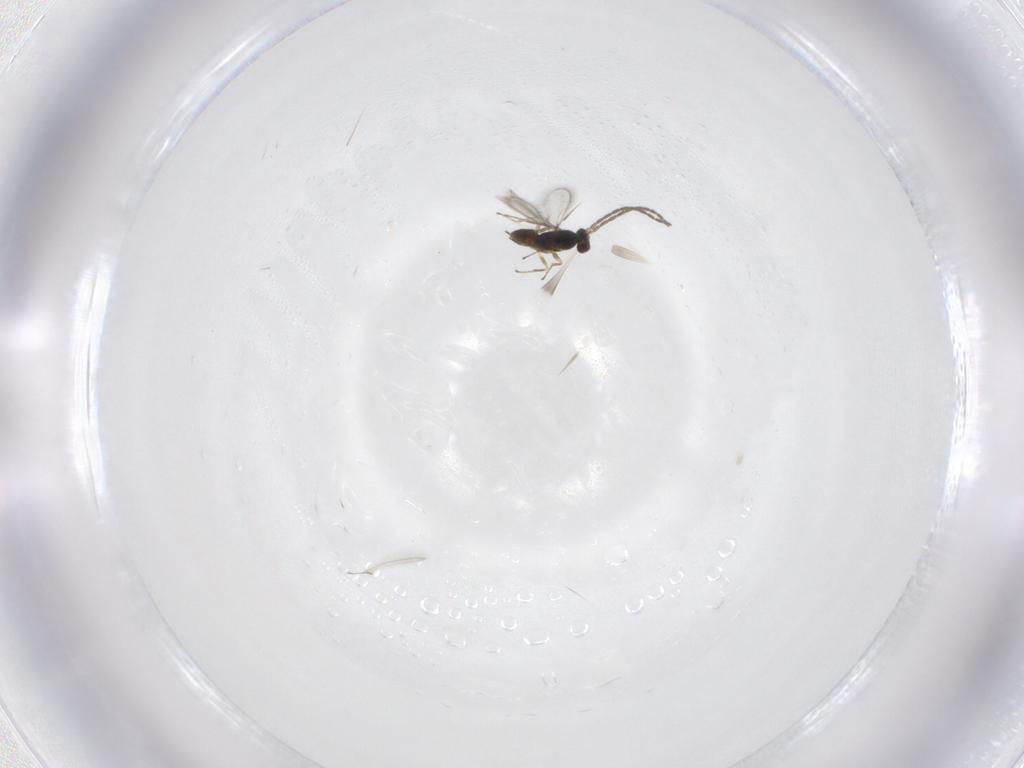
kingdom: Animalia
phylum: Arthropoda
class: Insecta
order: Hymenoptera
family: Mymaridae
